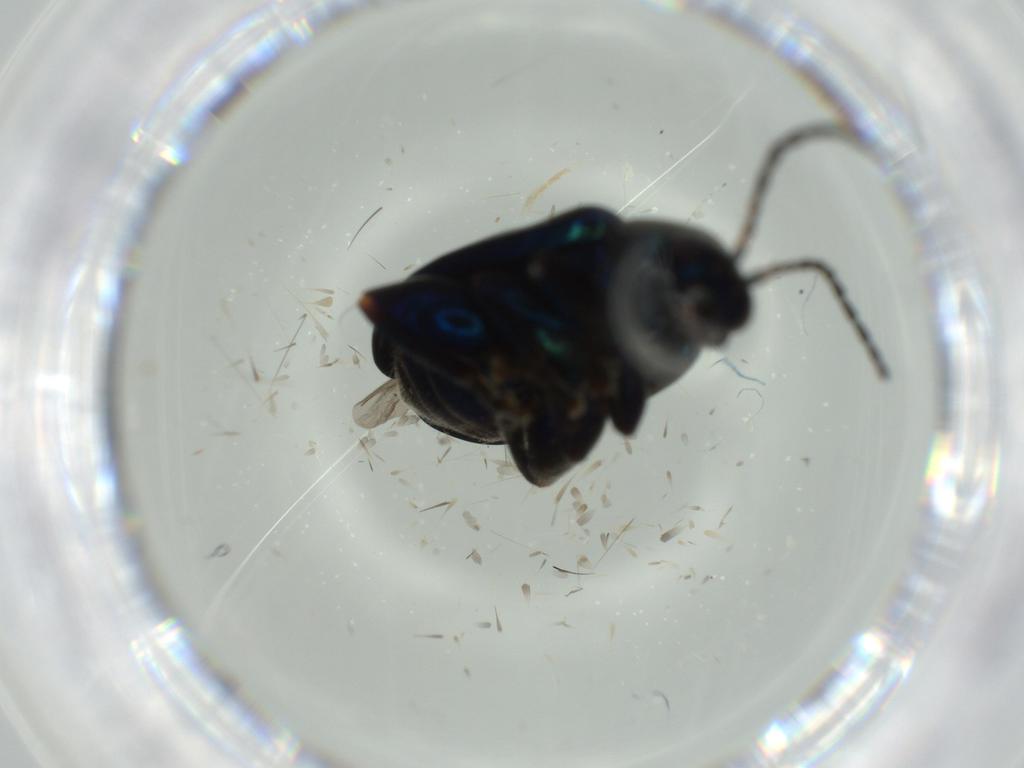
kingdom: Animalia
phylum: Arthropoda
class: Insecta
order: Coleoptera
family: Chrysomelidae
